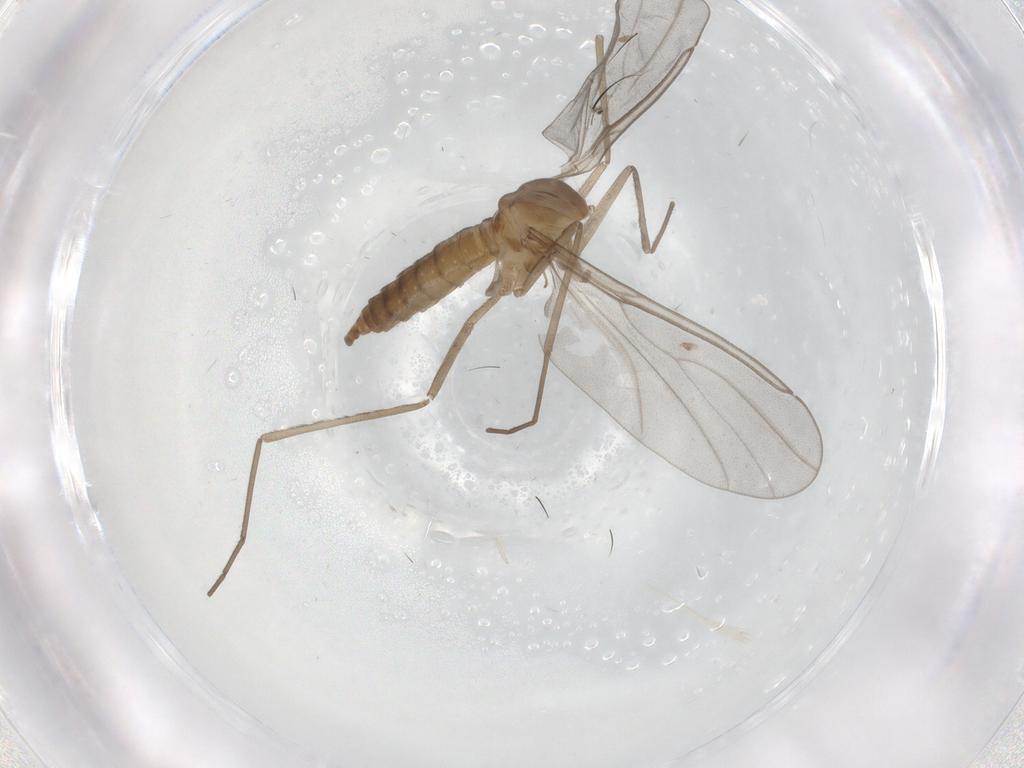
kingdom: Animalia
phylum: Arthropoda
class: Insecta
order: Diptera
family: Cecidomyiidae
